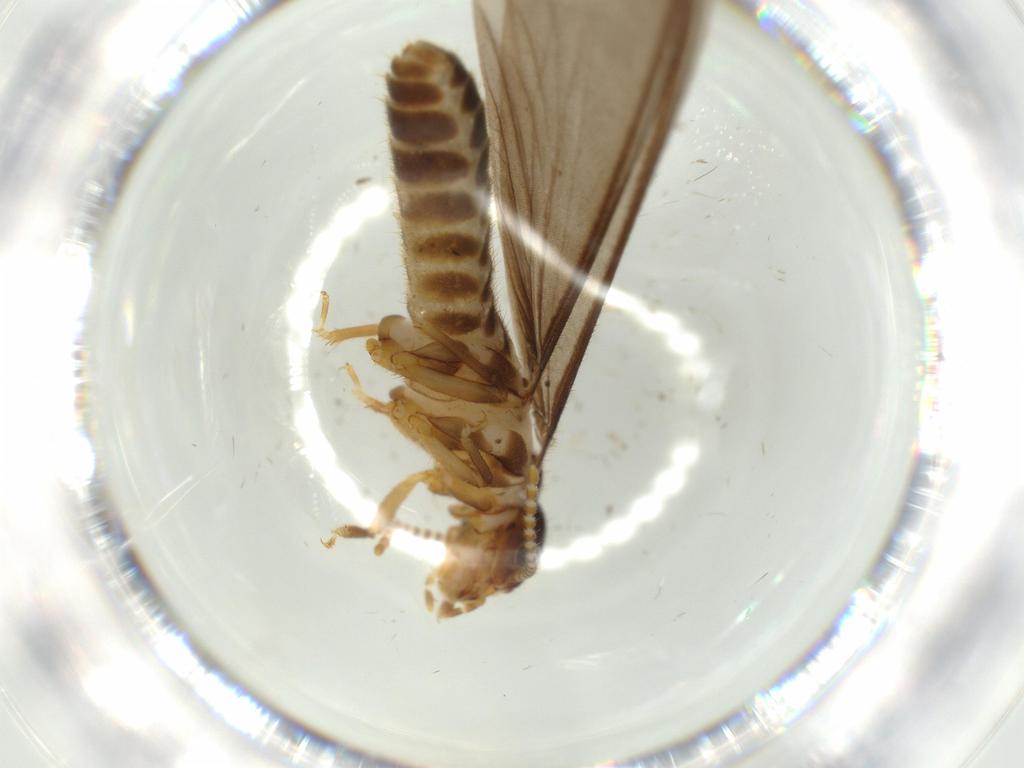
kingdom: Animalia
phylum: Arthropoda
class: Insecta
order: Blattodea
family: Termitidae
